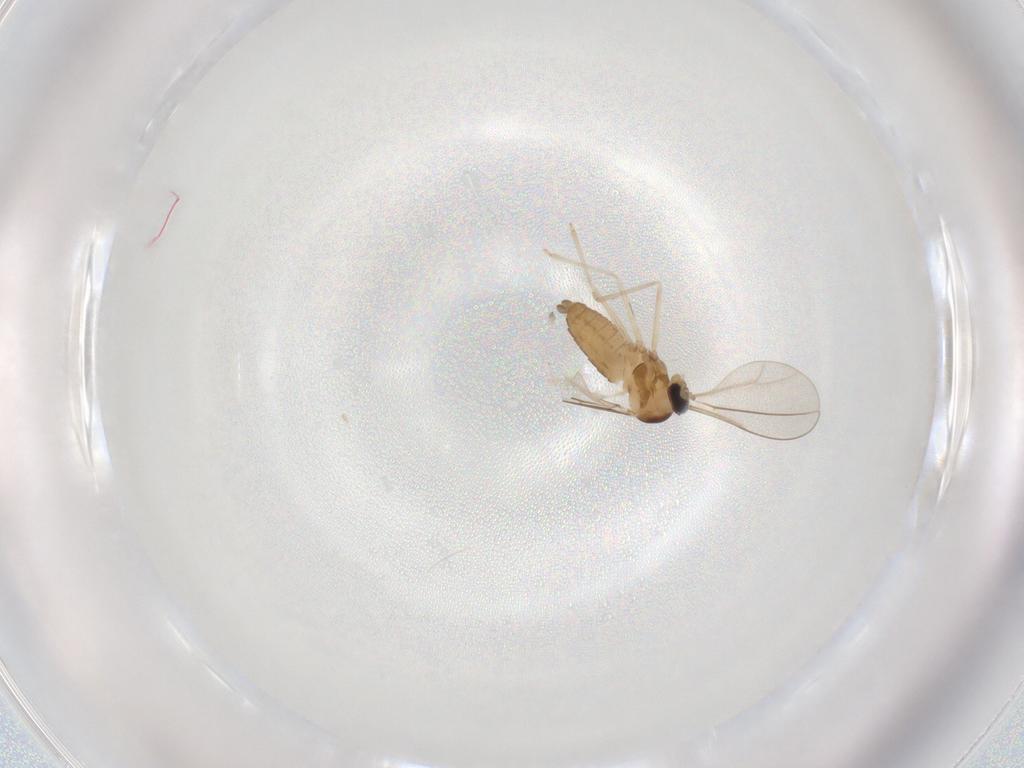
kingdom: Animalia
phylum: Arthropoda
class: Insecta
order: Diptera
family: Cecidomyiidae
